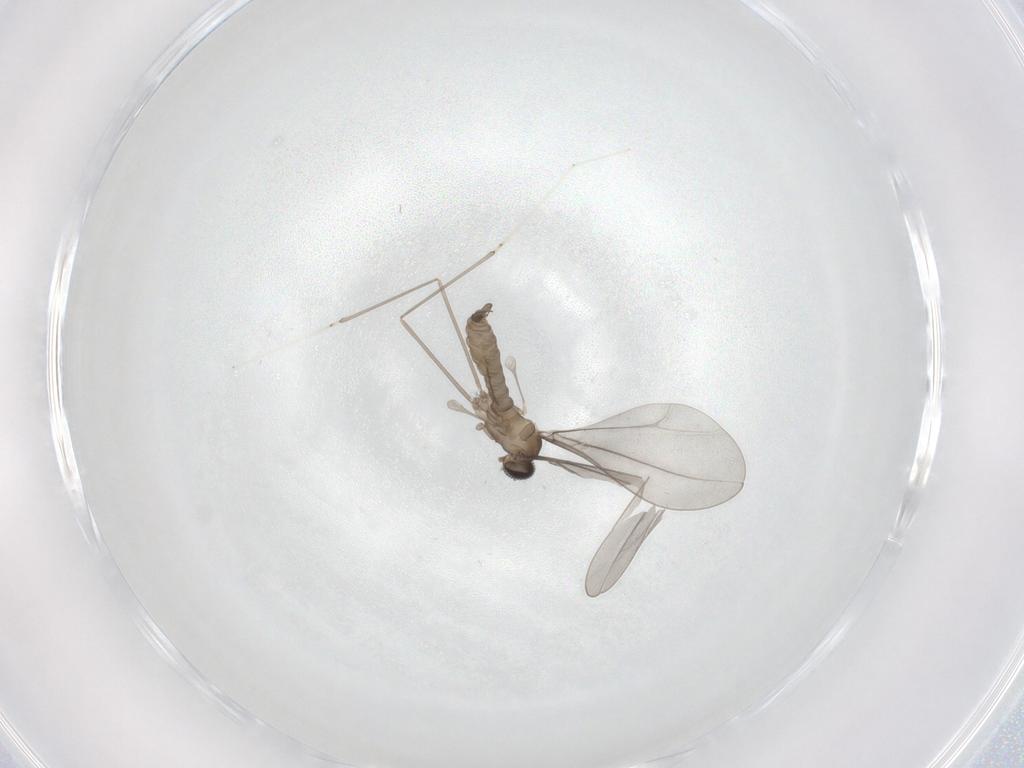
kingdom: Animalia
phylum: Arthropoda
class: Insecta
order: Diptera
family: Cecidomyiidae
